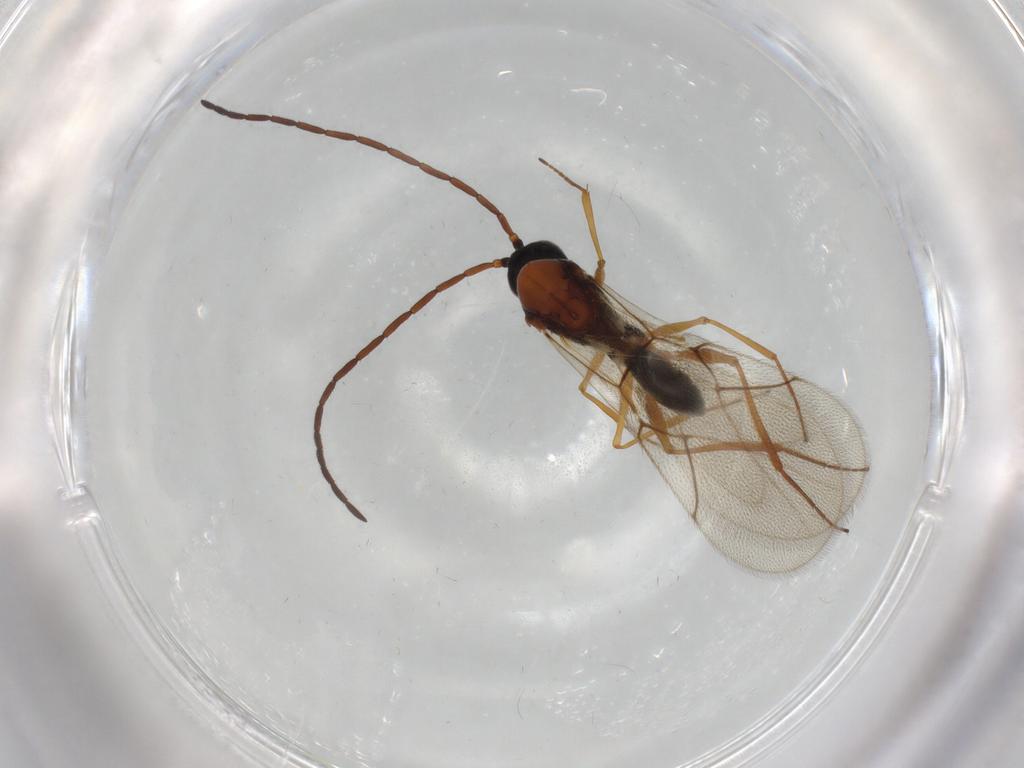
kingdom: Animalia
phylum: Arthropoda
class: Insecta
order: Hymenoptera
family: Figitidae
